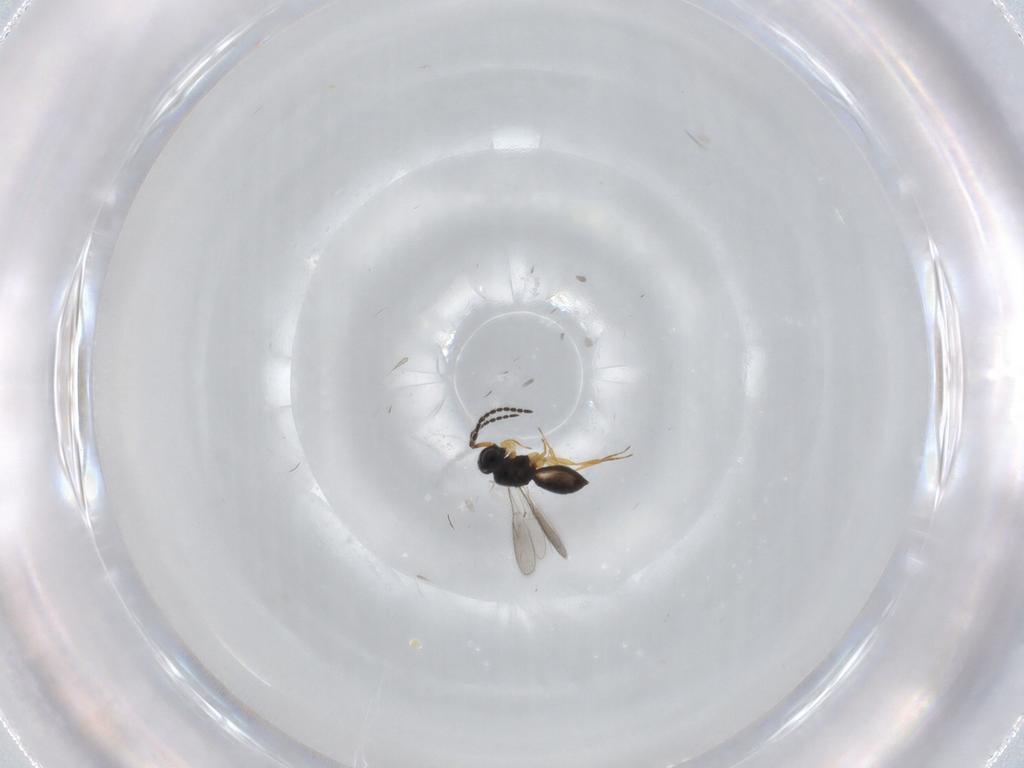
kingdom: Animalia
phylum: Arthropoda
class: Insecta
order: Hymenoptera
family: Scelionidae
